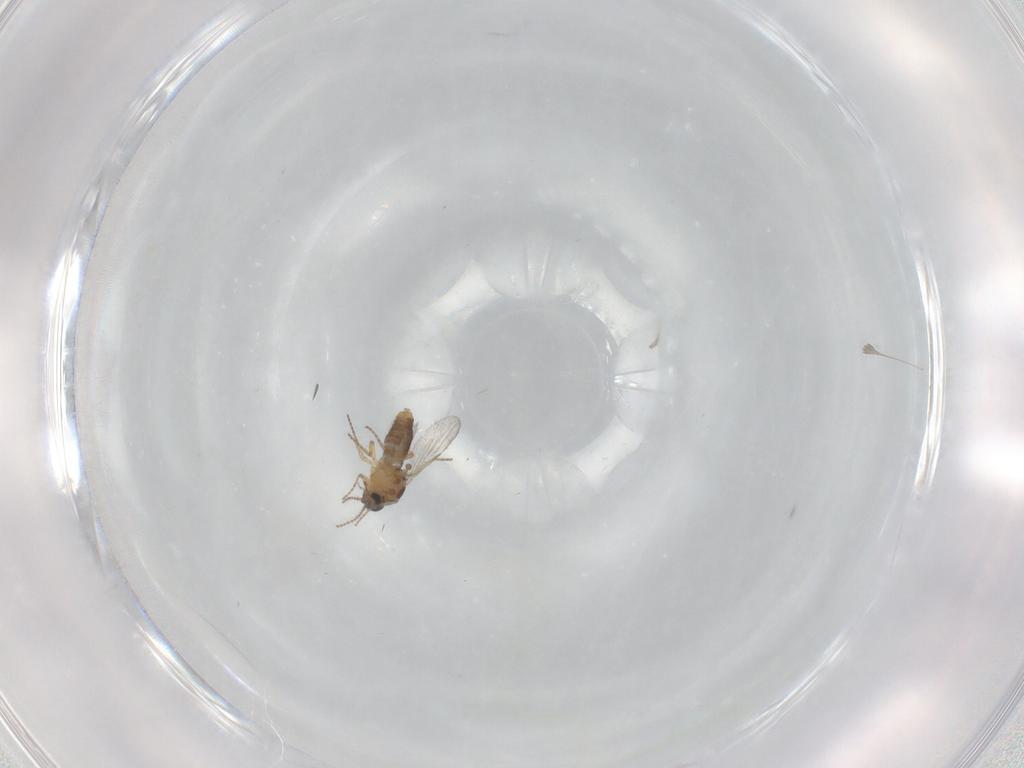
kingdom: Animalia
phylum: Arthropoda
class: Insecta
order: Diptera
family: Ceratopogonidae
